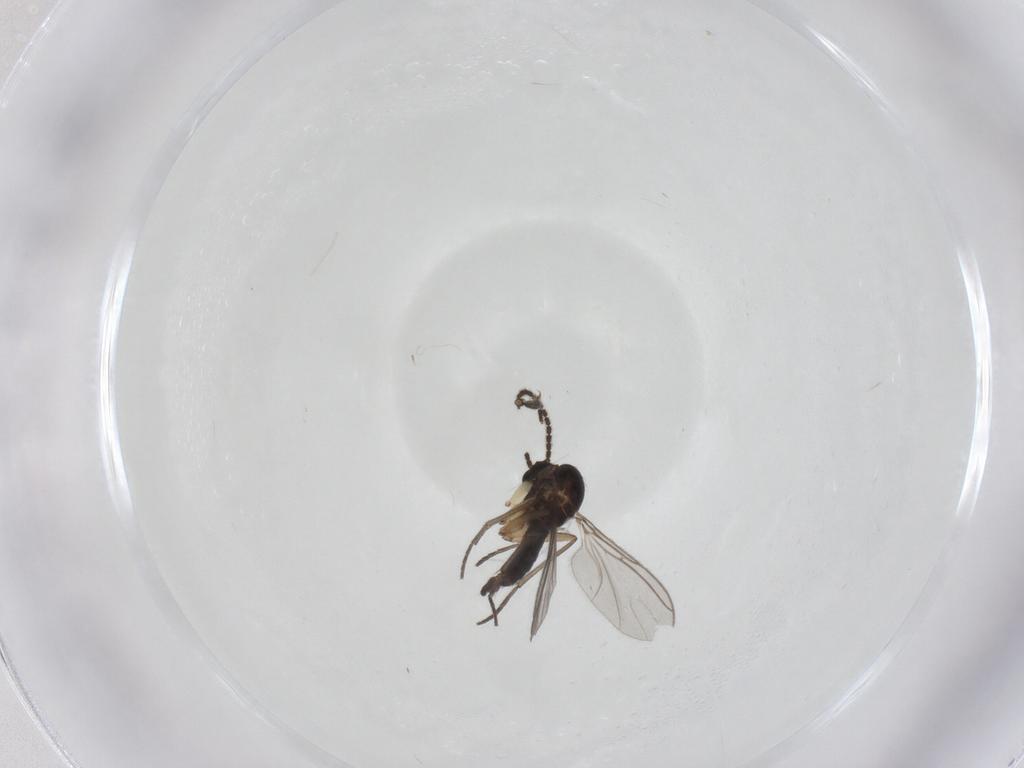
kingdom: Animalia
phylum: Arthropoda
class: Insecta
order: Diptera
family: Sciaridae
